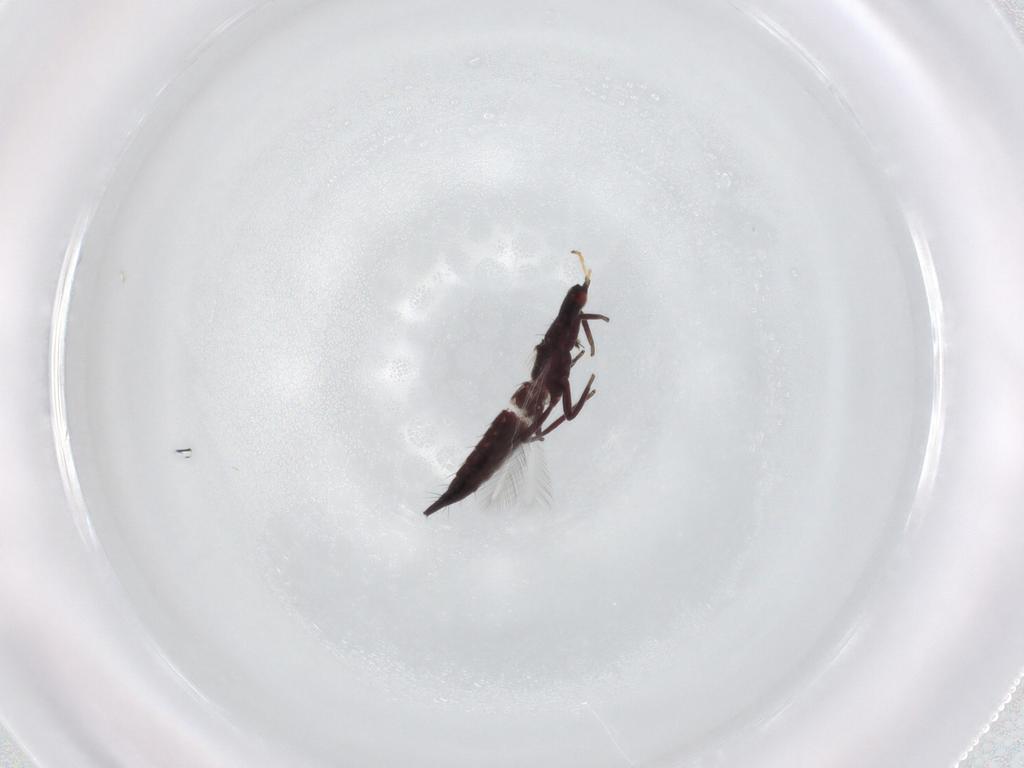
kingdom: Animalia
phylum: Arthropoda
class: Insecta
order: Thysanoptera
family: Phlaeothripidae
